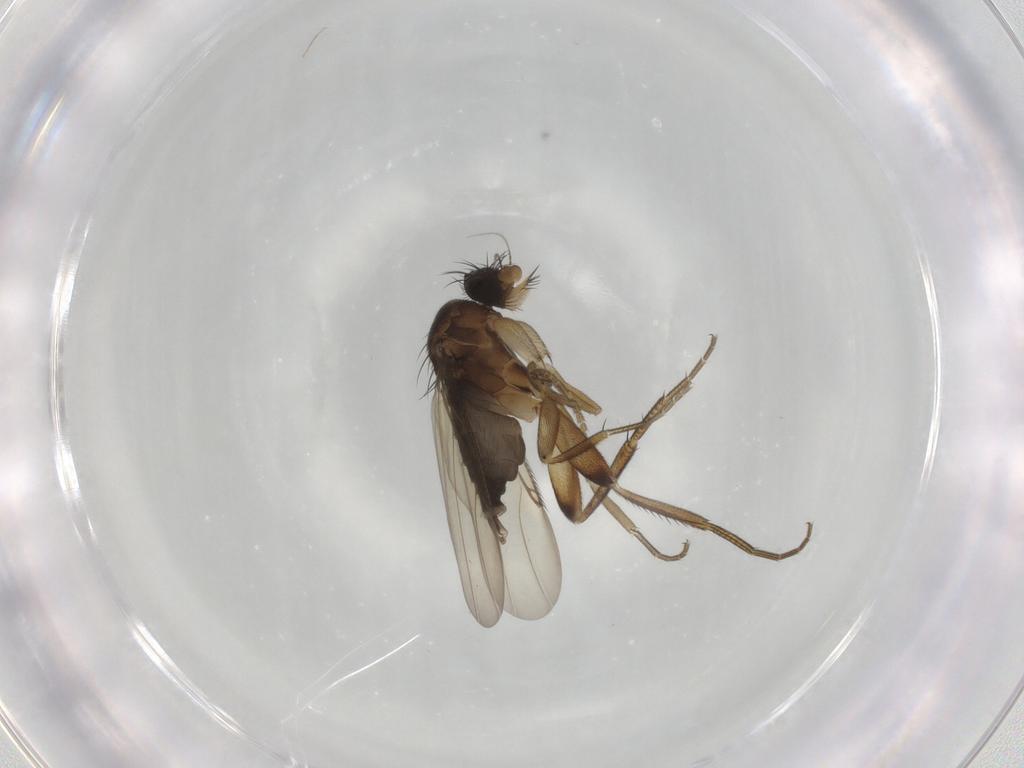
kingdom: Animalia
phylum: Arthropoda
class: Insecta
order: Diptera
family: Phoridae
